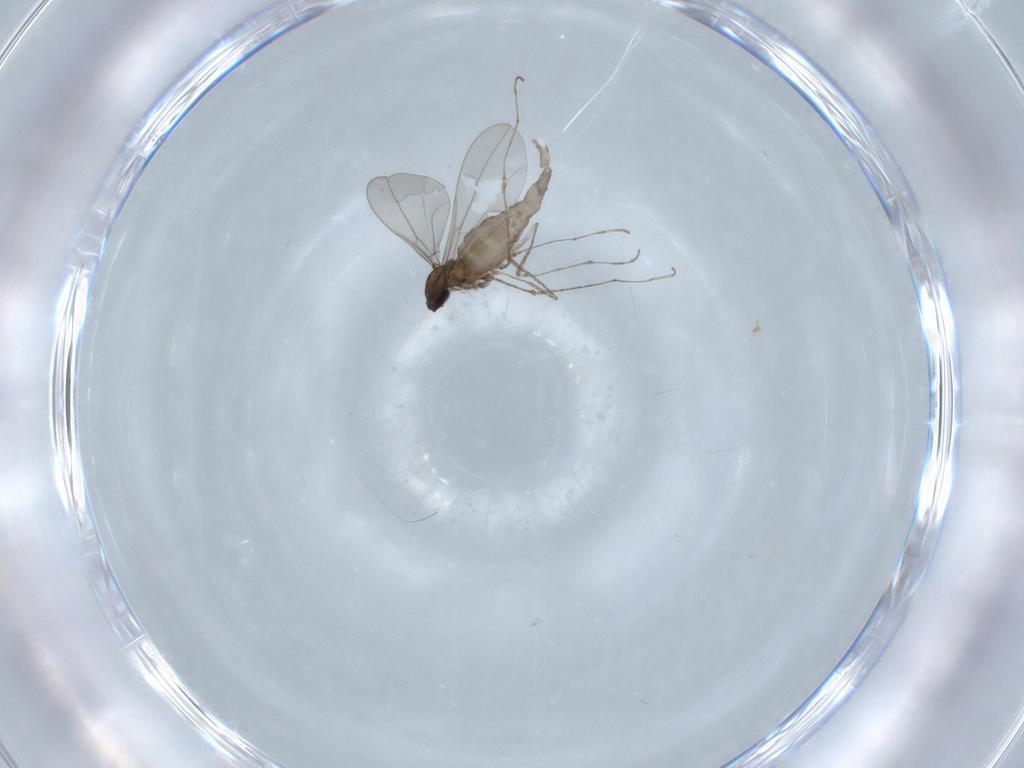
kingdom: Animalia
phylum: Arthropoda
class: Insecta
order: Diptera
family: Cecidomyiidae
